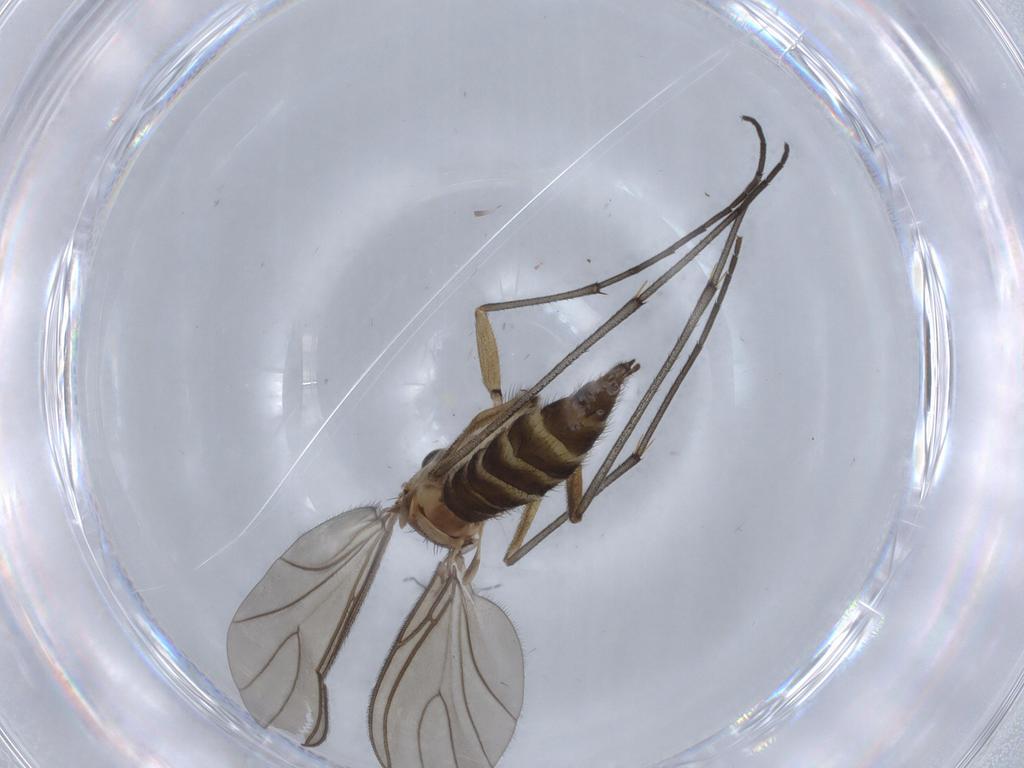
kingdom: Animalia
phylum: Arthropoda
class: Insecta
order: Diptera
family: Sciaridae
